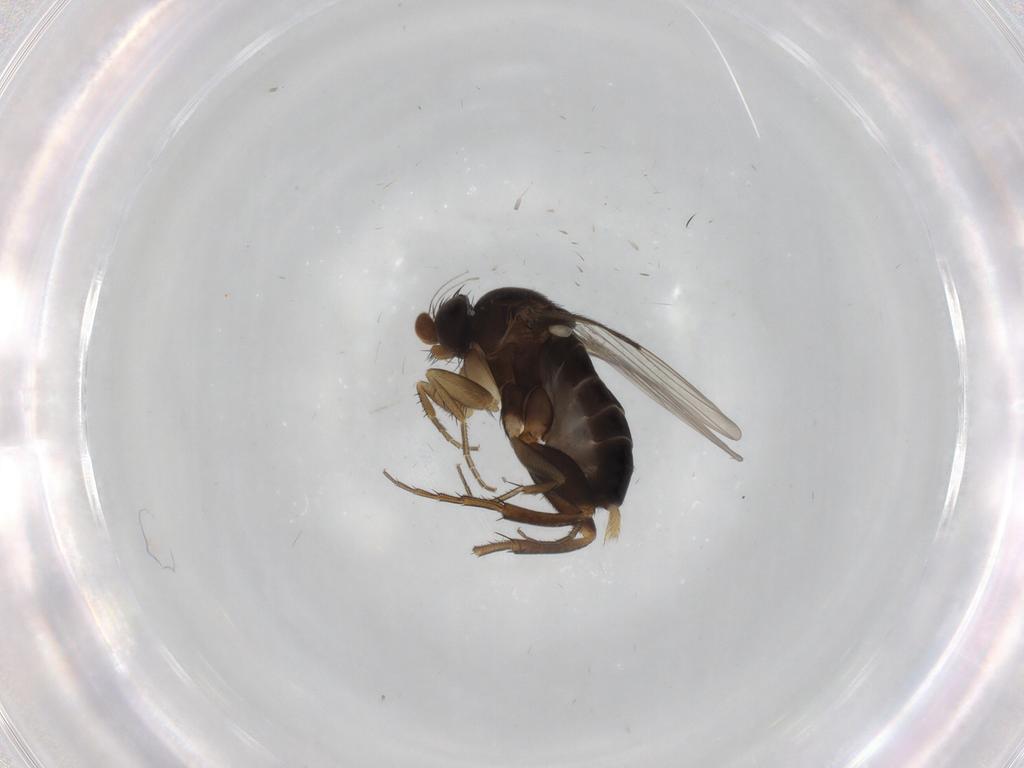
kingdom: Animalia
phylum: Arthropoda
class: Insecta
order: Diptera
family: Phoridae
